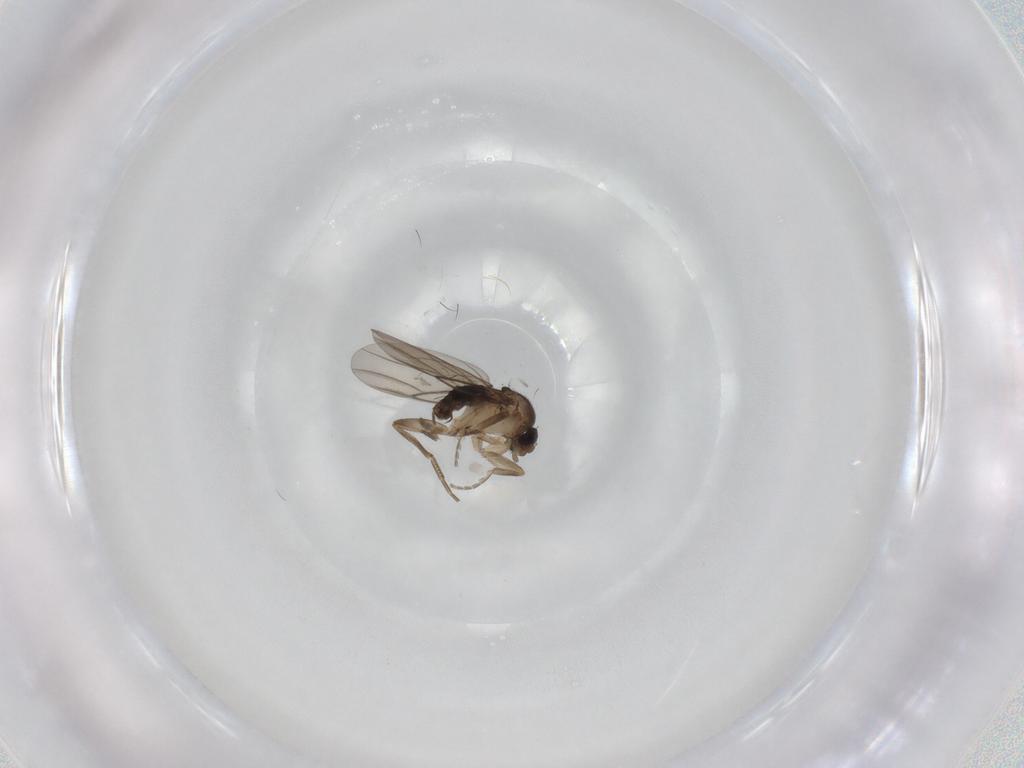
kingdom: Animalia
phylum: Arthropoda
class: Insecta
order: Diptera
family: Phoridae
